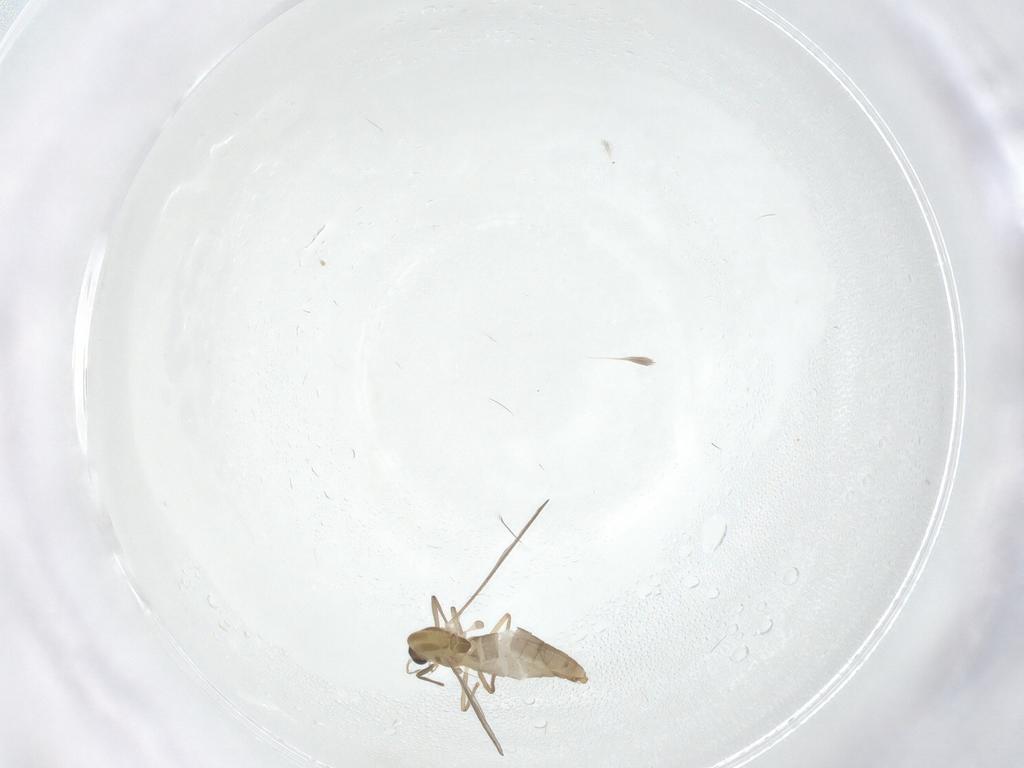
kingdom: Animalia
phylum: Arthropoda
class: Insecta
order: Diptera
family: Chironomidae
